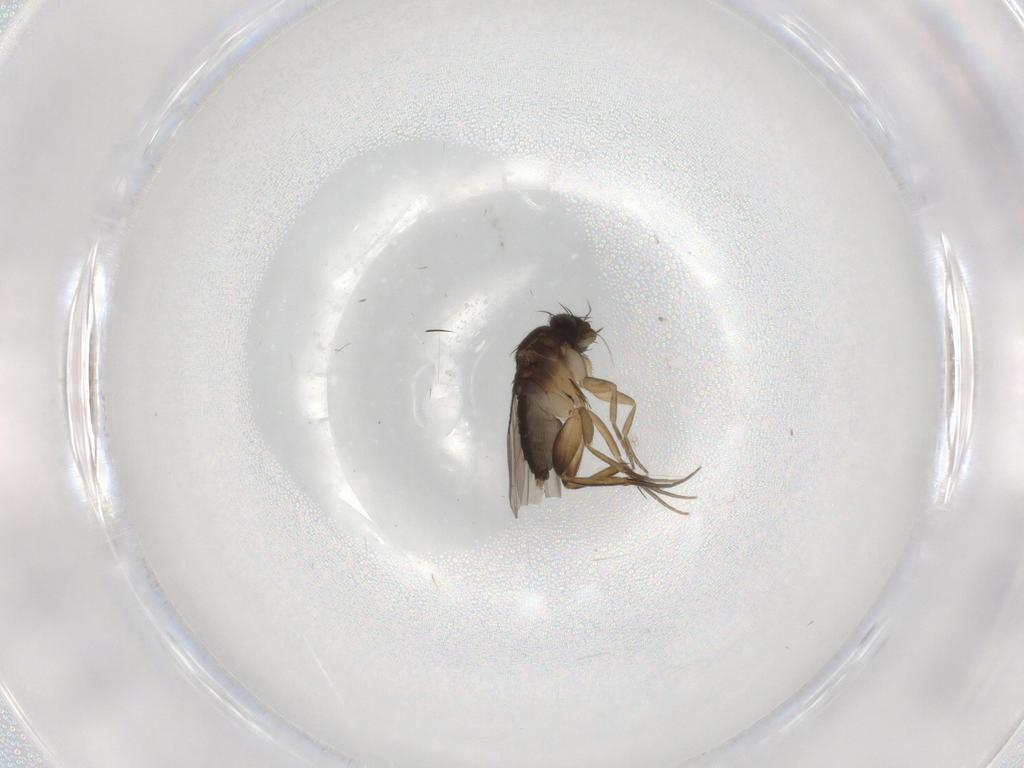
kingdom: Animalia
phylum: Arthropoda
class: Insecta
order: Diptera
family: Phoridae
